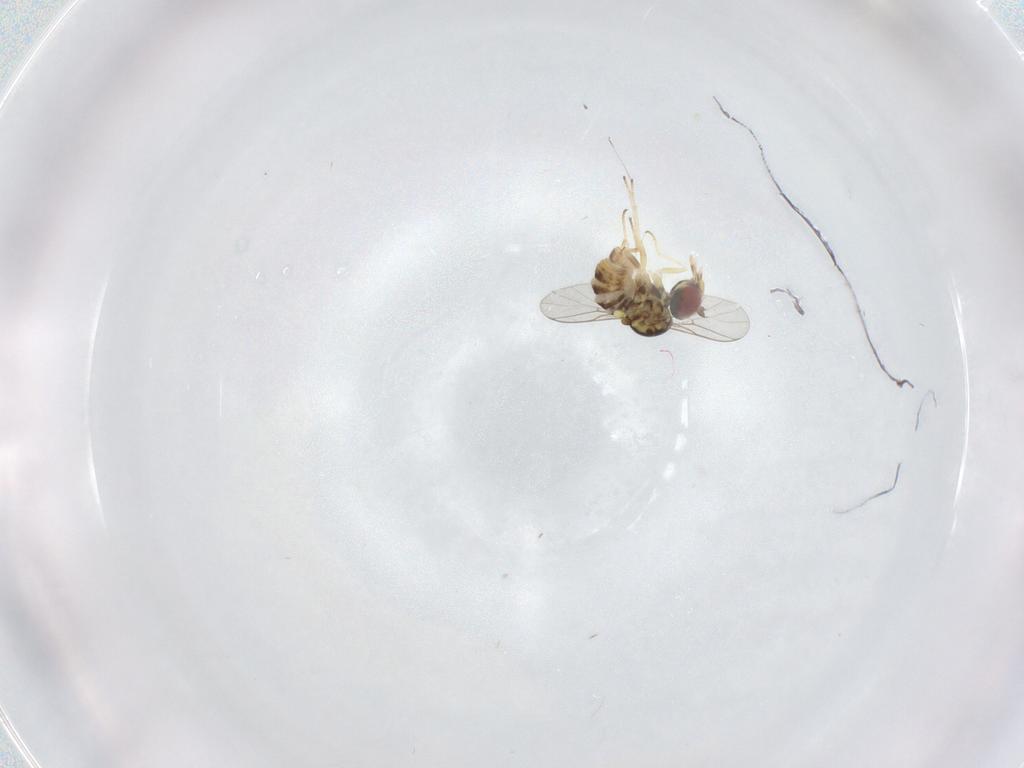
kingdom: Animalia
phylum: Arthropoda
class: Insecta
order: Diptera
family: Bombyliidae
